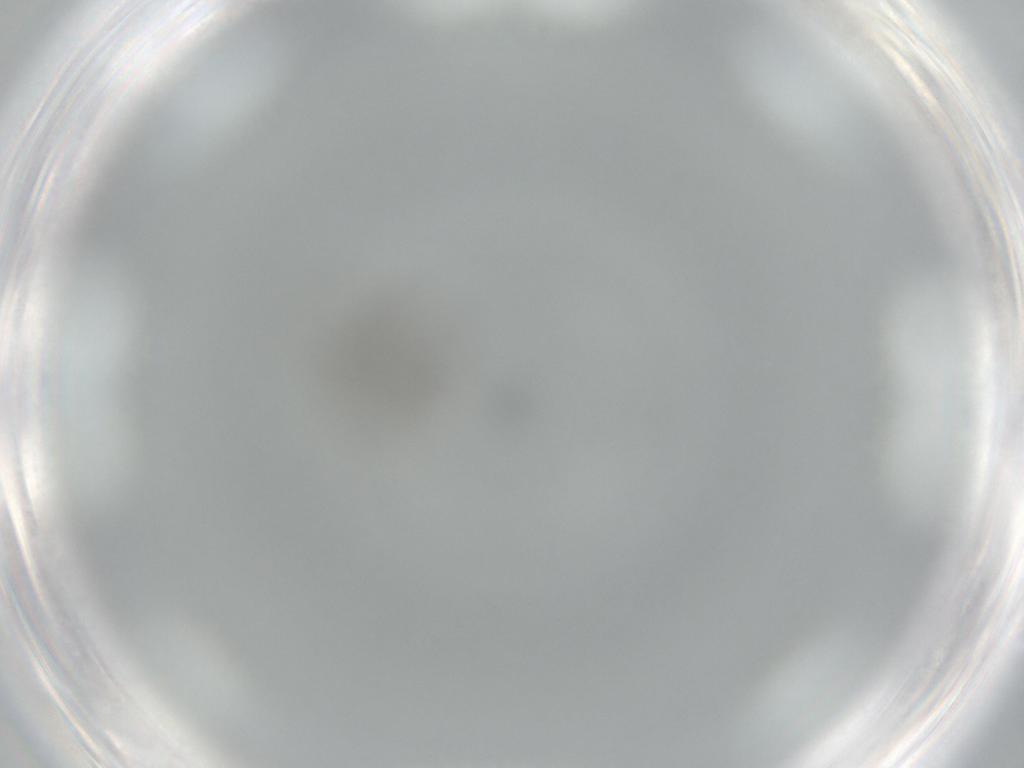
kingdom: Animalia
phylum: Arthropoda
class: Insecta
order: Diptera
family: Phoridae
